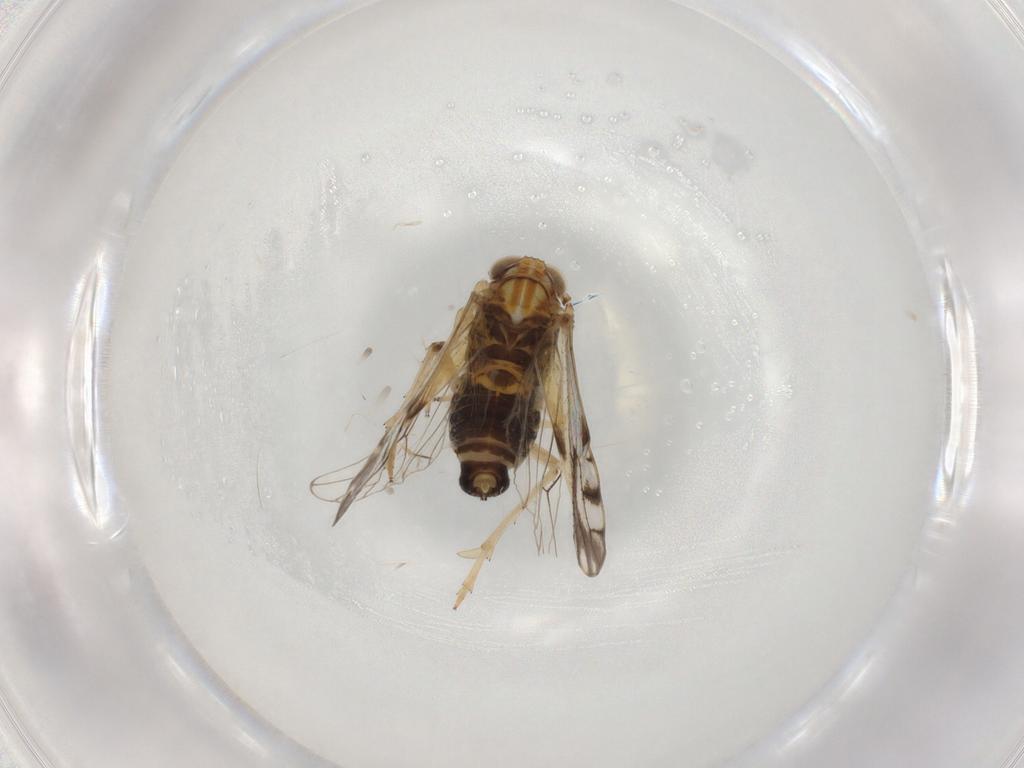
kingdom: Animalia
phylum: Arthropoda
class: Insecta
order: Hemiptera
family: Delphacidae
